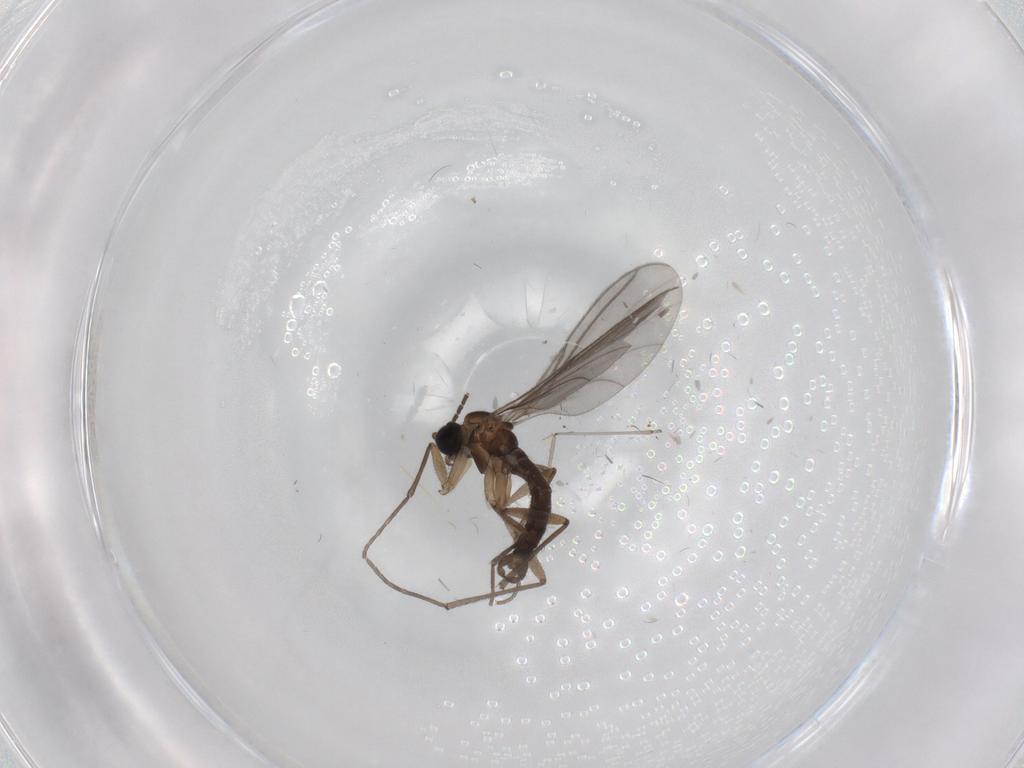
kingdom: Animalia
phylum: Arthropoda
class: Insecta
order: Diptera
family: Sciaridae
